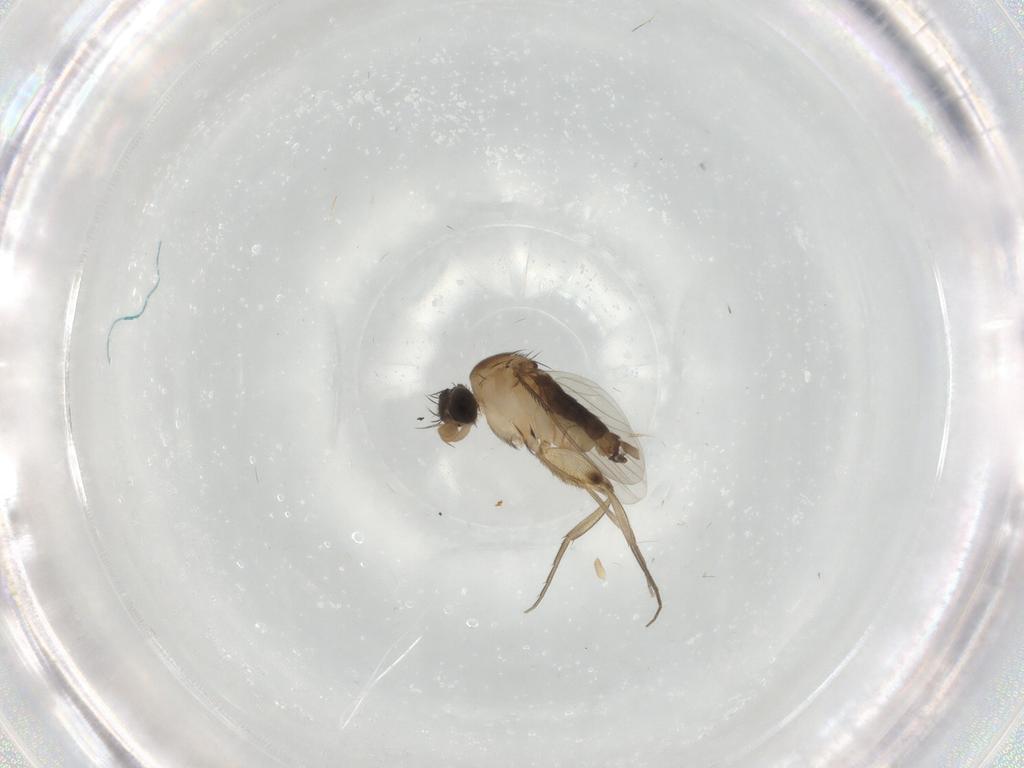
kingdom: Animalia
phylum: Arthropoda
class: Insecta
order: Diptera
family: Phoridae
